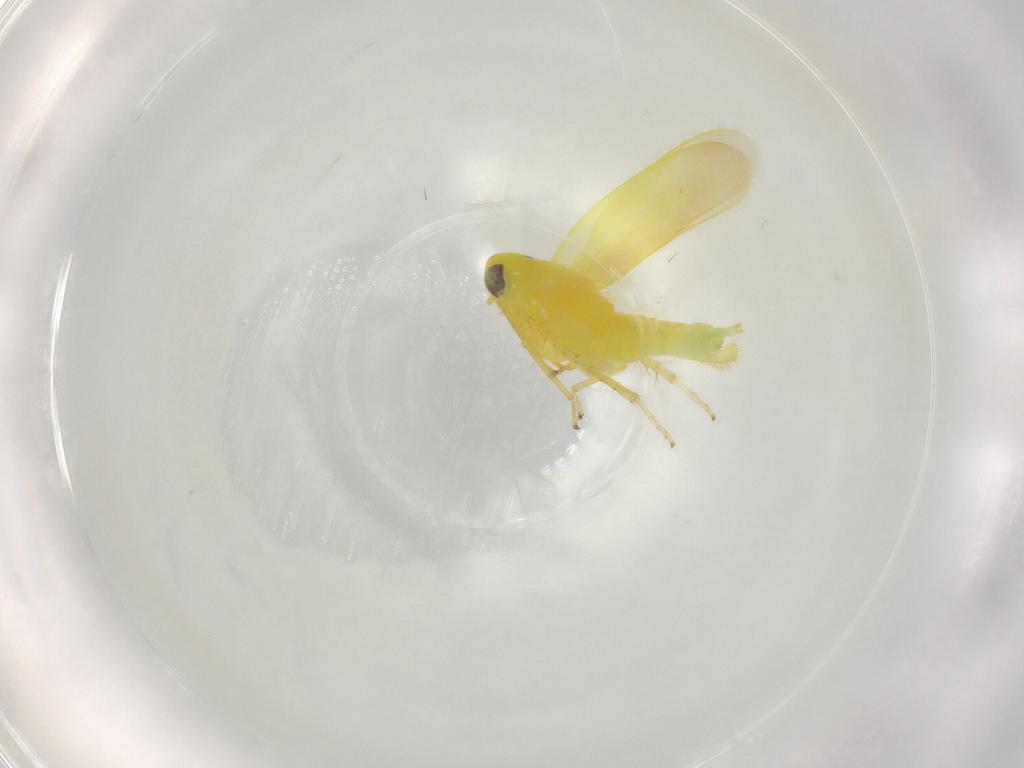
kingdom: Animalia
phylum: Arthropoda
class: Insecta
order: Hemiptera
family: Cicadellidae
